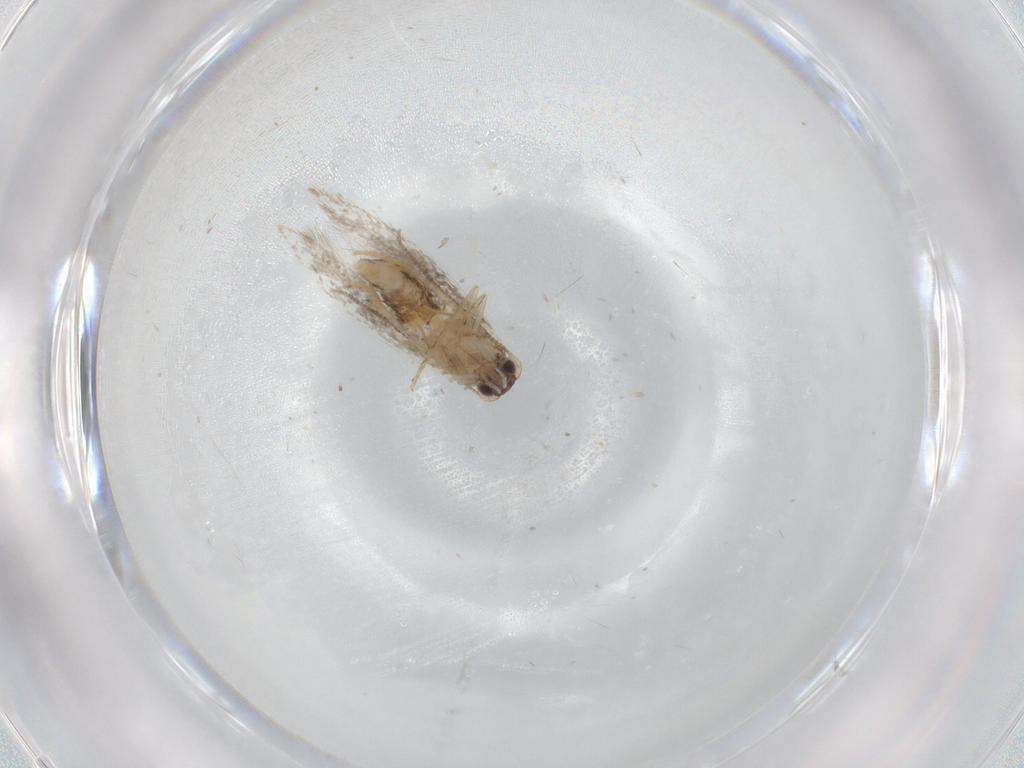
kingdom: Animalia
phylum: Arthropoda
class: Insecta
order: Lepidoptera
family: Tineidae
